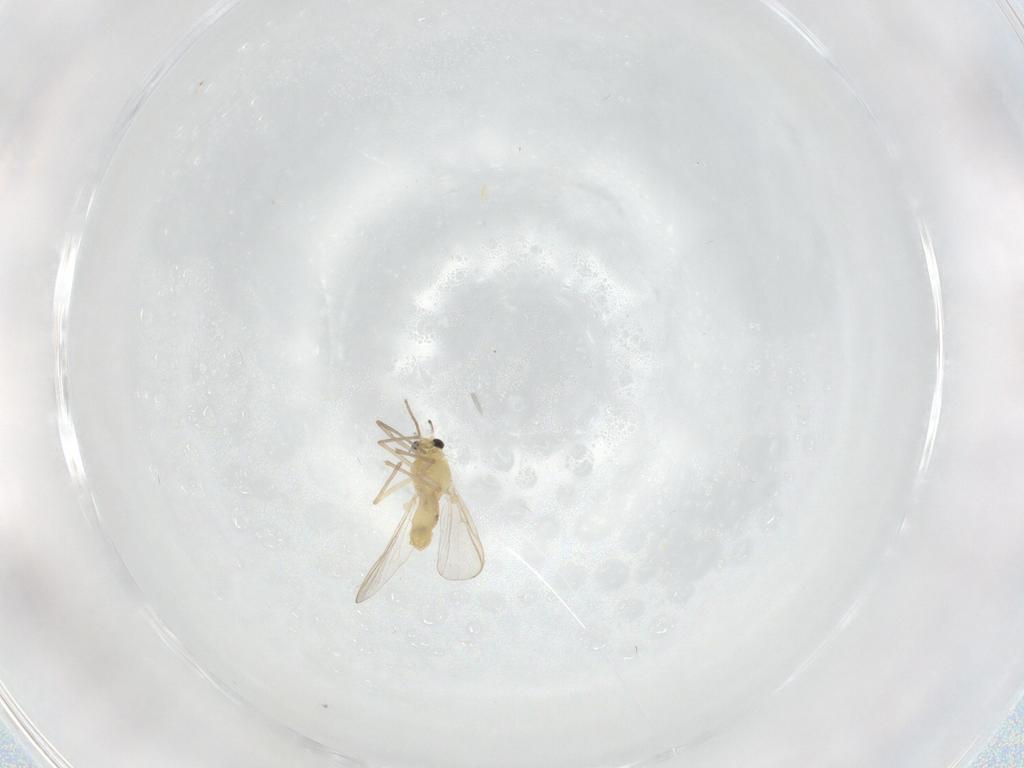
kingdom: Animalia
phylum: Arthropoda
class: Insecta
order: Diptera
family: Chironomidae
